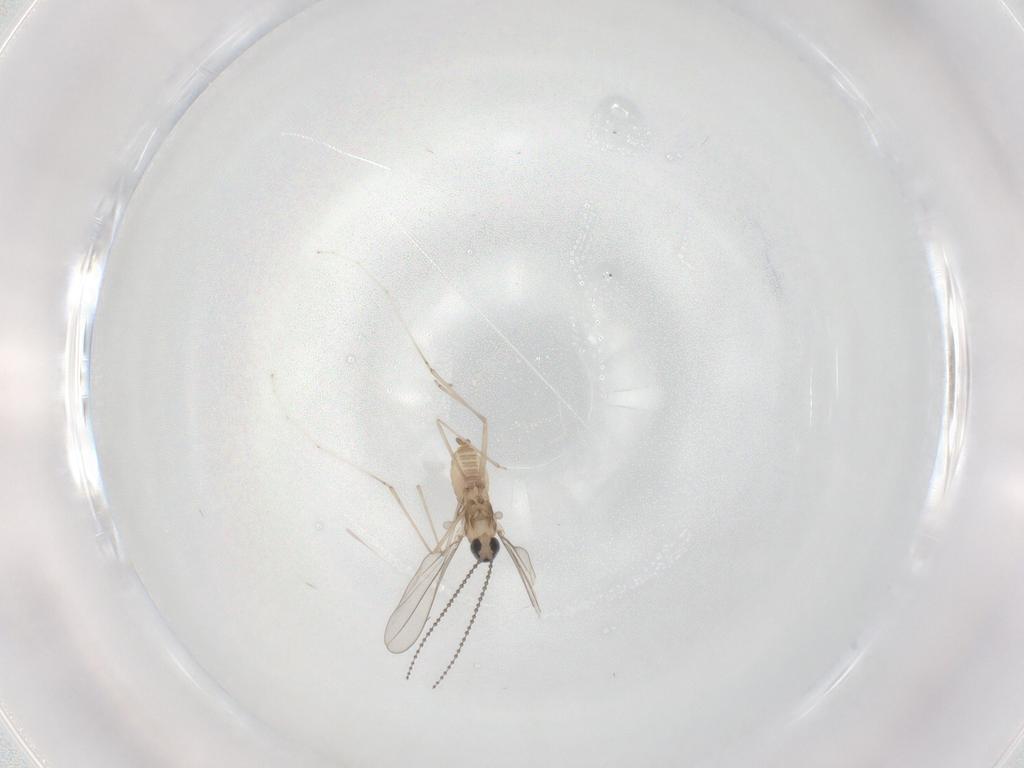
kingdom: Animalia
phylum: Arthropoda
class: Insecta
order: Diptera
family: Cecidomyiidae
